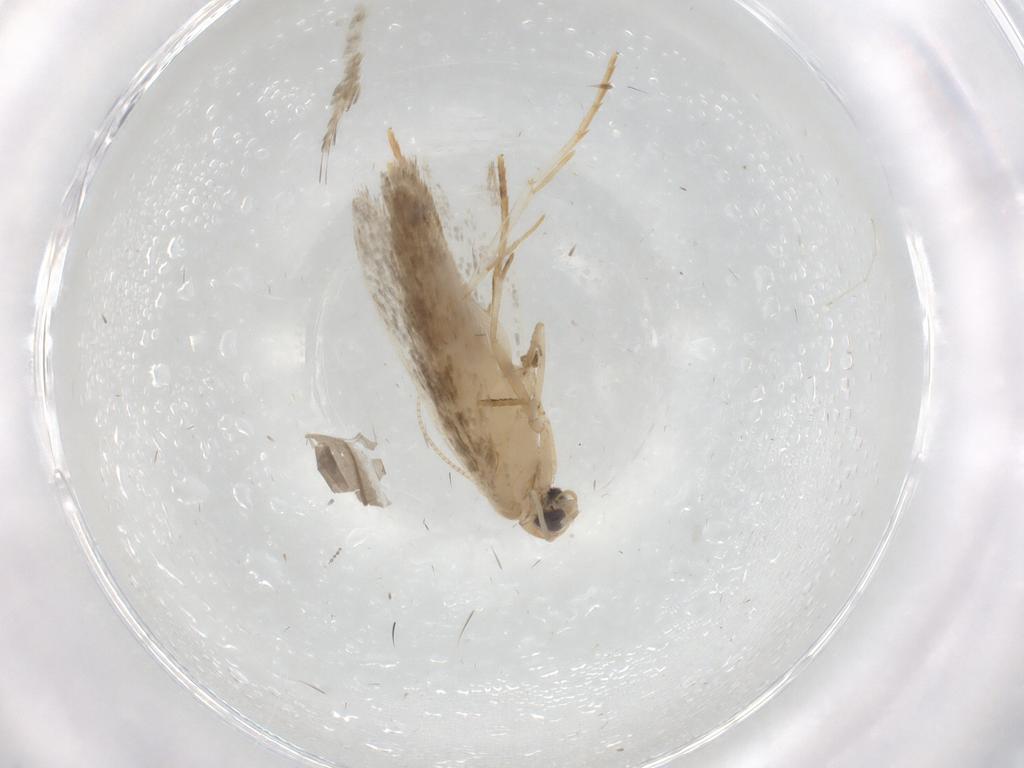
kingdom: Animalia
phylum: Arthropoda
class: Insecta
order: Lepidoptera
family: Tineidae
